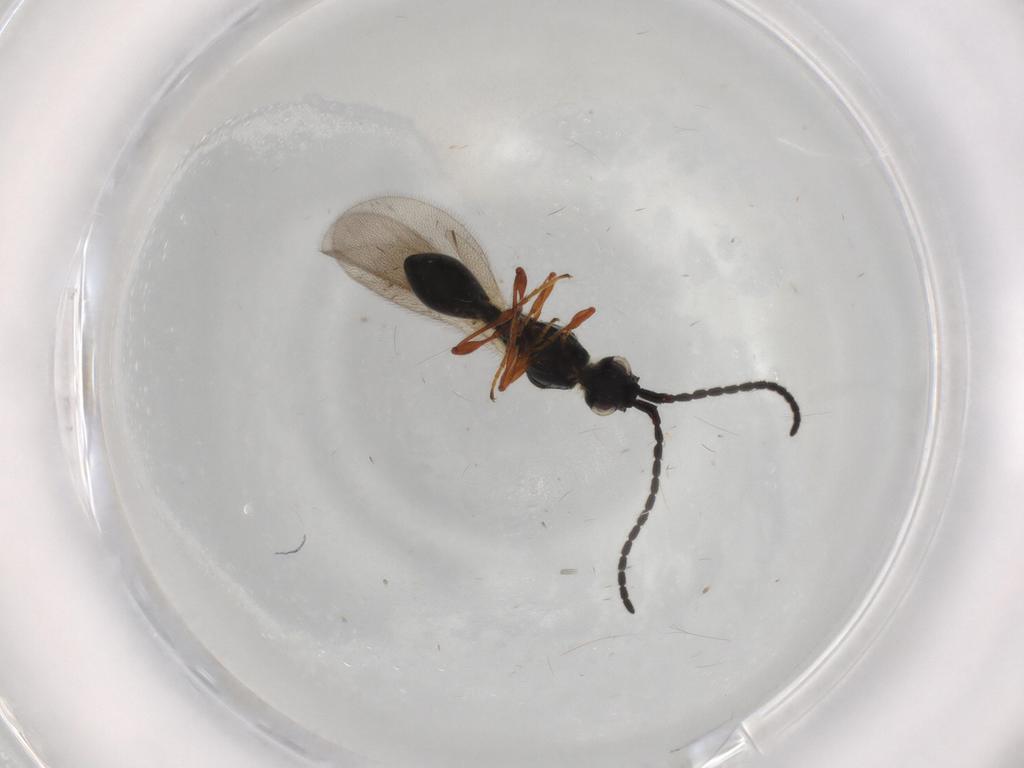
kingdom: Animalia
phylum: Arthropoda
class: Insecta
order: Hymenoptera
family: Diapriidae
